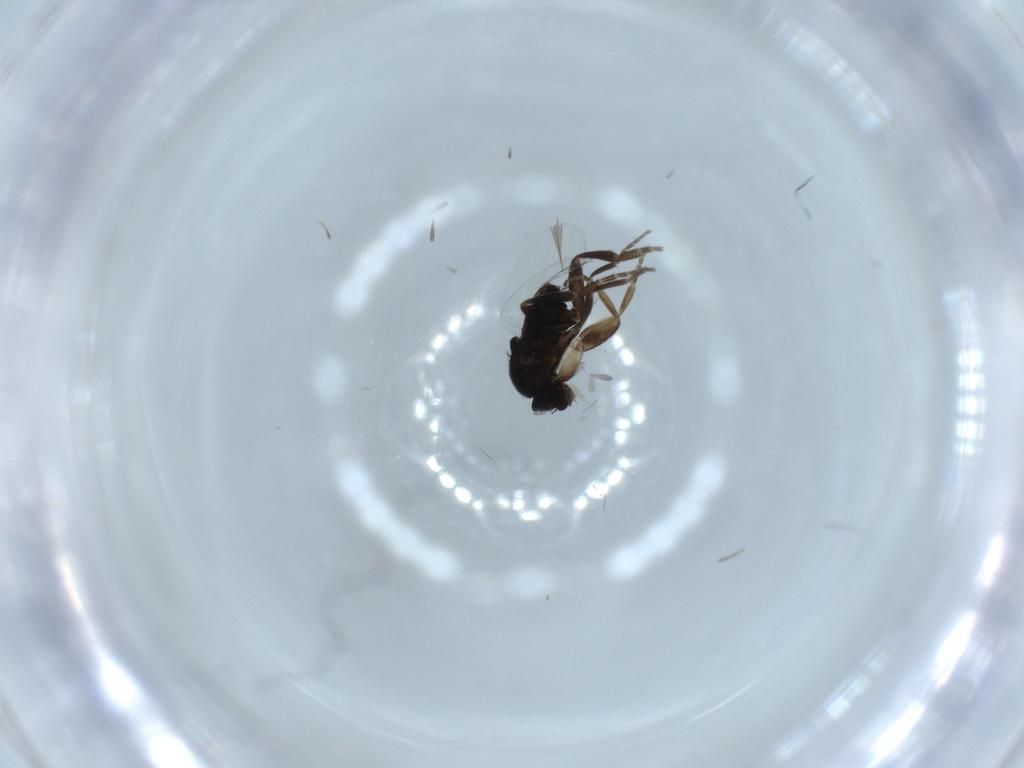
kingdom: Animalia
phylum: Arthropoda
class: Insecta
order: Diptera
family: Phoridae
